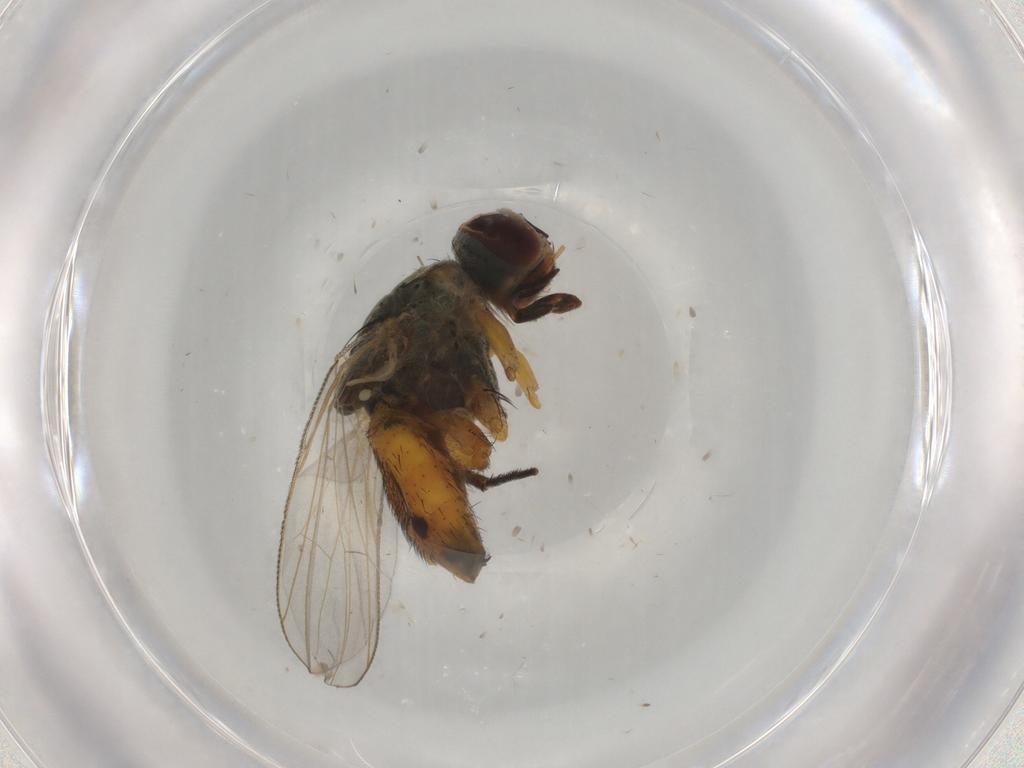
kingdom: Animalia
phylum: Arthropoda
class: Insecta
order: Diptera
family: Muscidae
